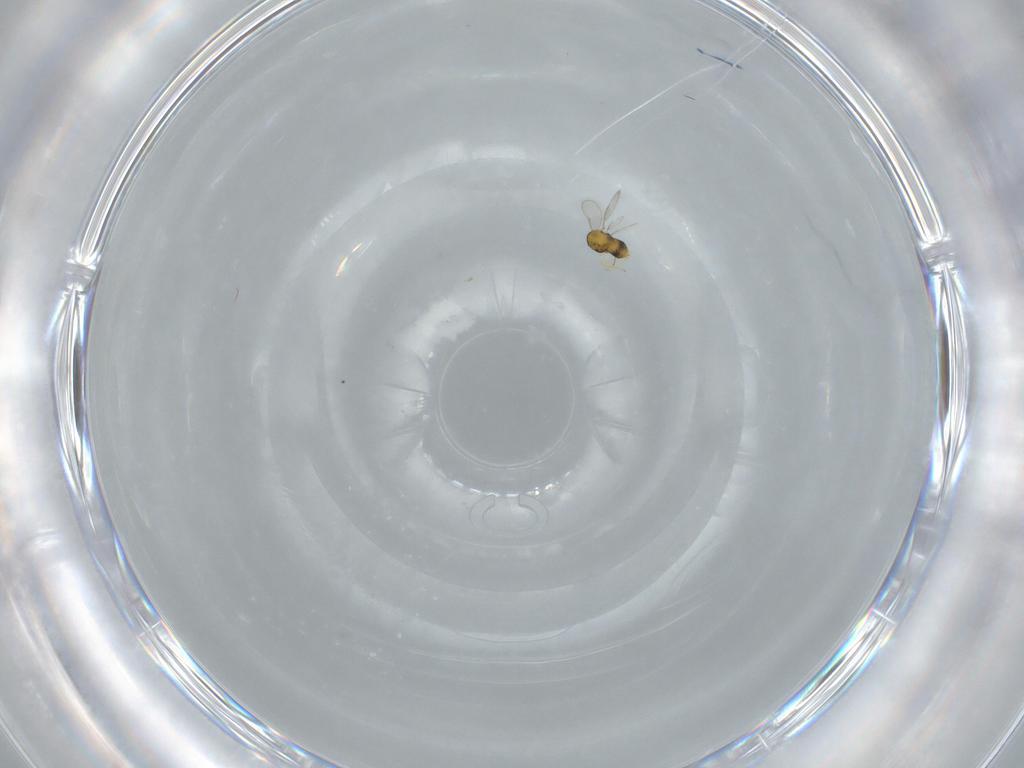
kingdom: Animalia
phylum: Arthropoda
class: Insecta
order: Hymenoptera
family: Aphelinidae
